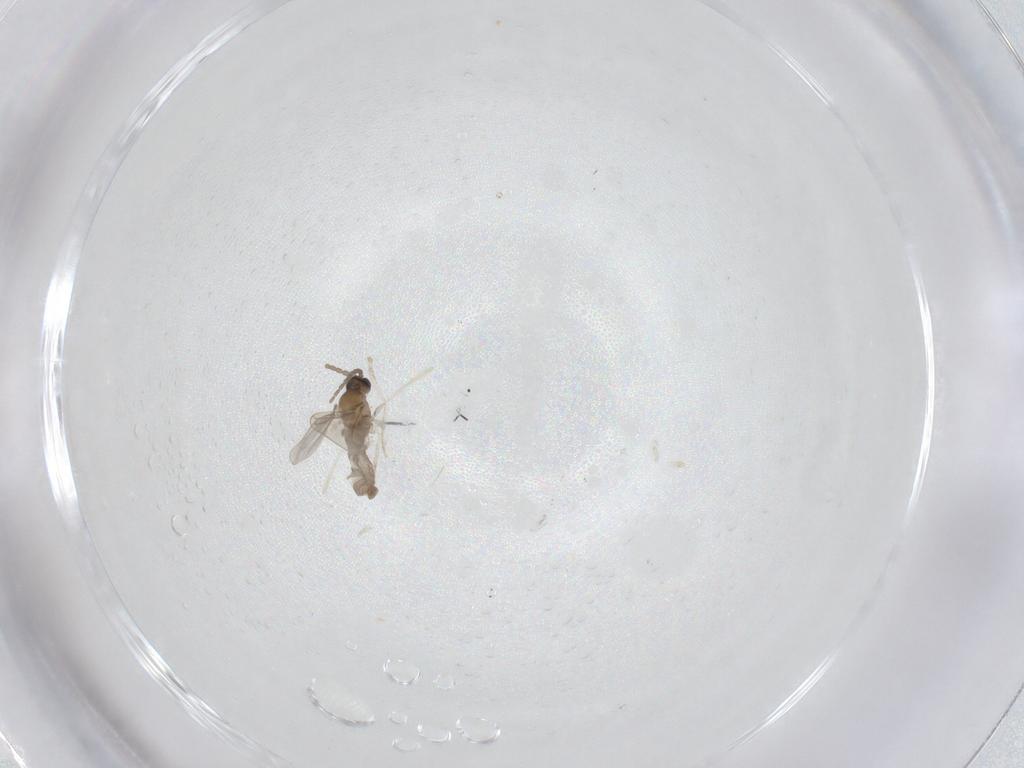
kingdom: Animalia
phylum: Arthropoda
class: Insecta
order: Diptera
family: Cecidomyiidae
